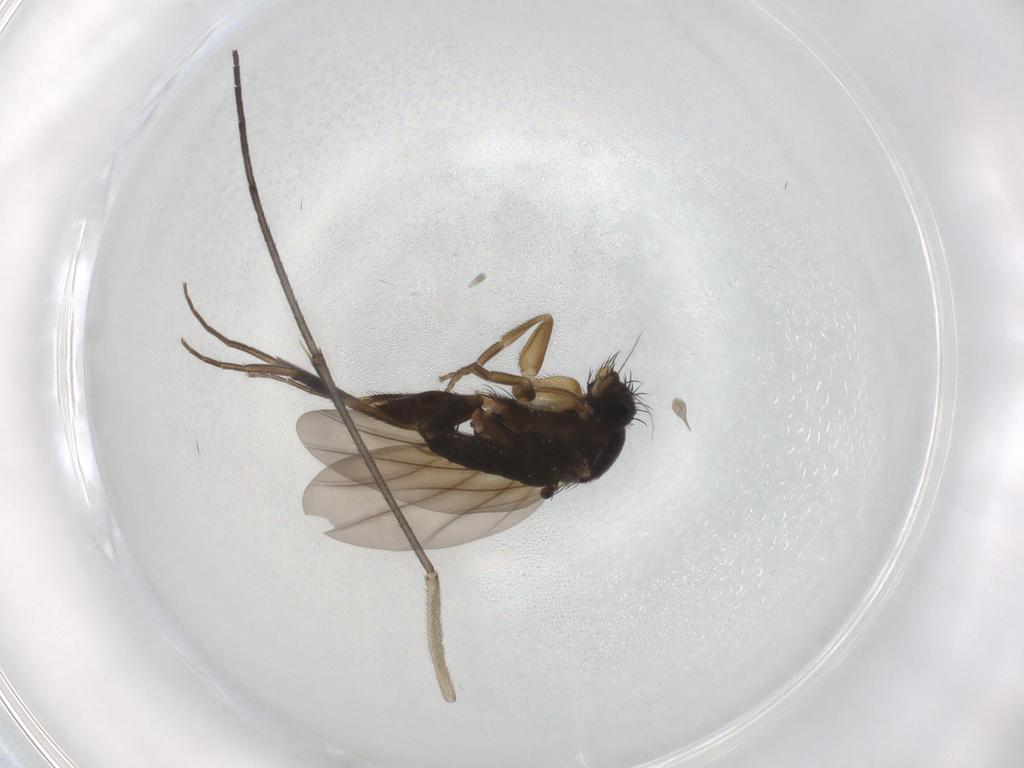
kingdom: Animalia
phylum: Arthropoda
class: Insecta
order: Diptera
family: Phoridae
